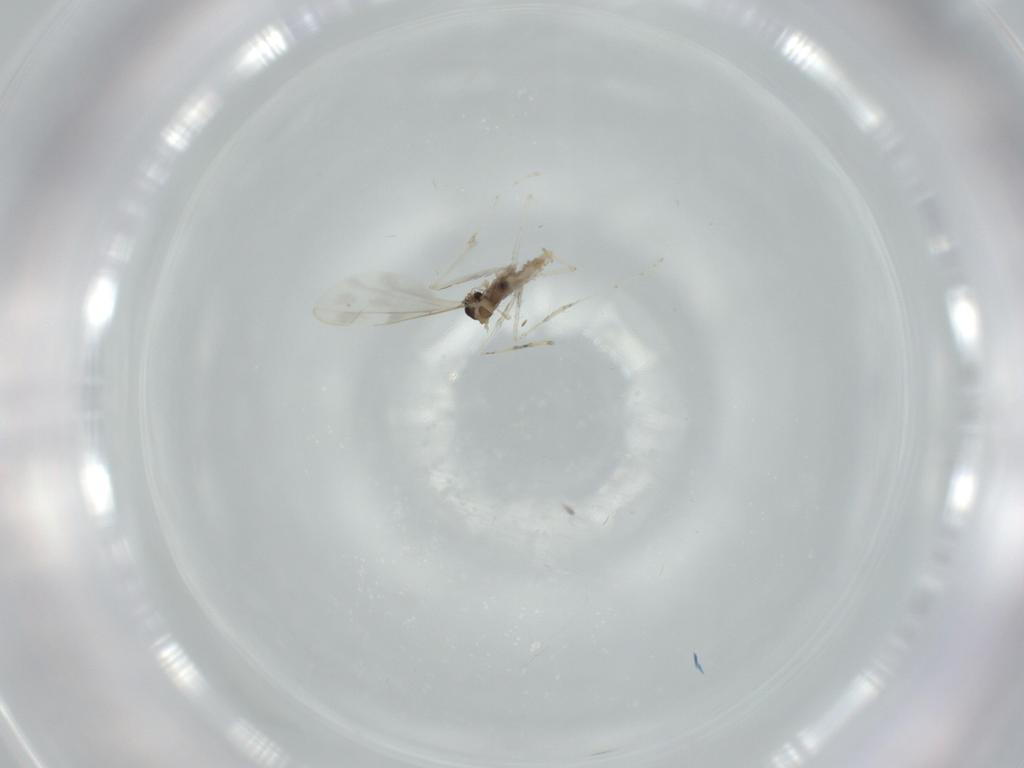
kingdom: Animalia
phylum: Arthropoda
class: Insecta
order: Diptera
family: Cecidomyiidae
